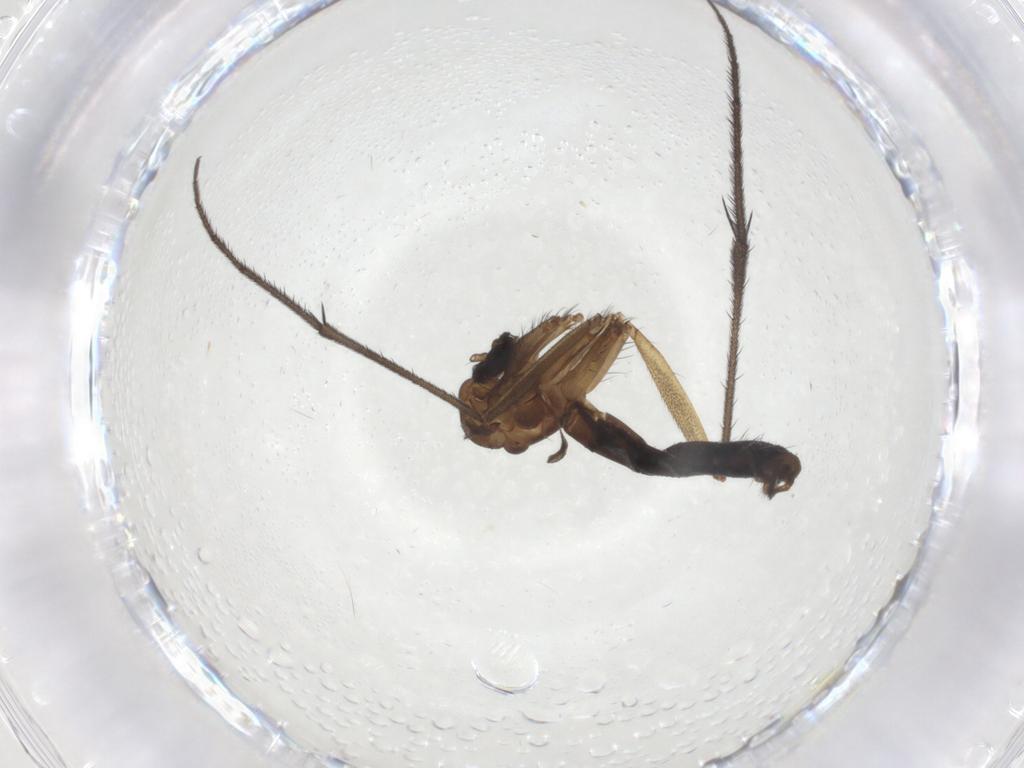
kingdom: Animalia
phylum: Arthropoda
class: Insecta
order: Diptera
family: Ditomyiidae
